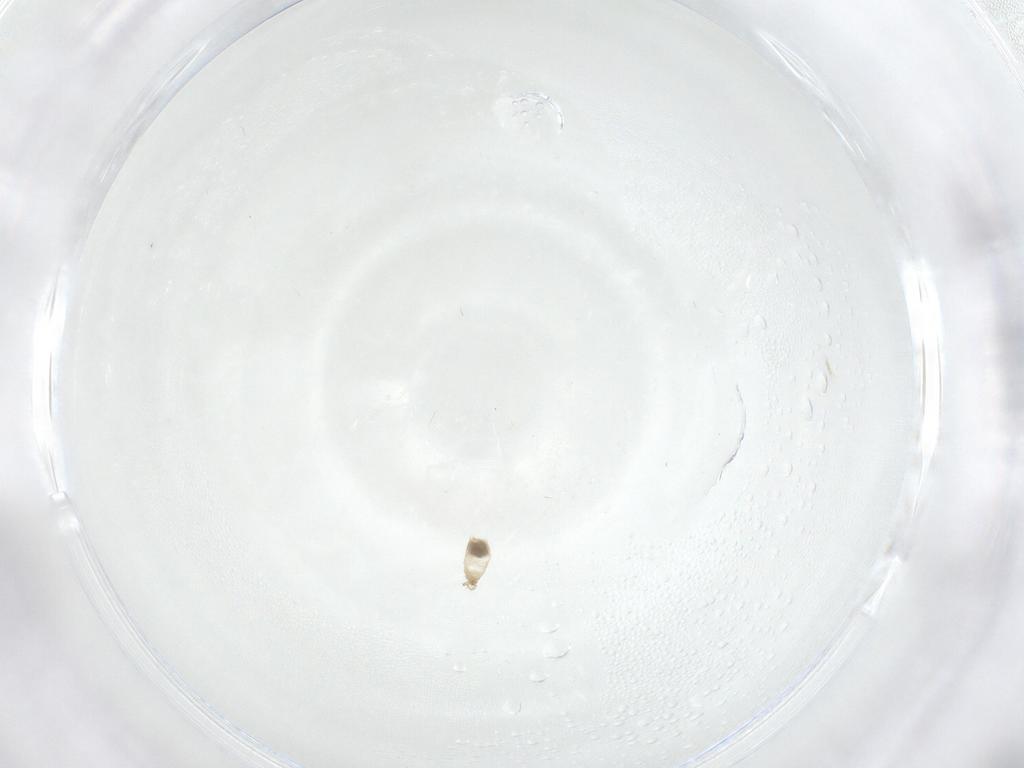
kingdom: Animalia
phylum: Arthropoda
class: Insecta
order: Diptera
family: Cecidomyiidae
